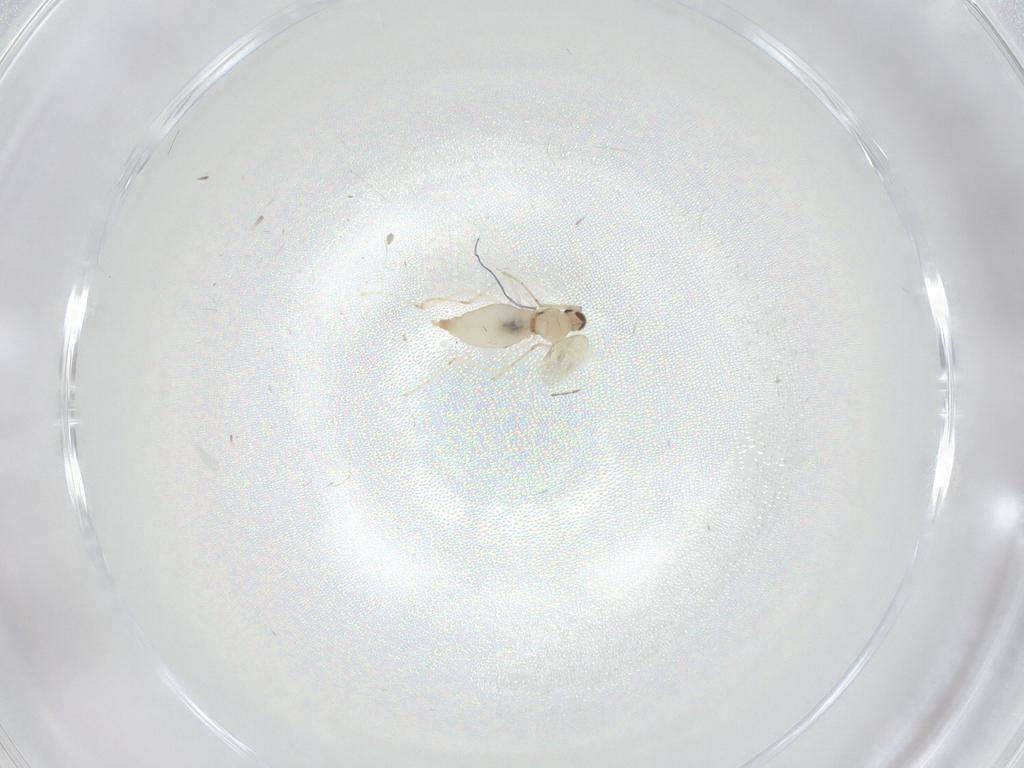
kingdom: Animalia
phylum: Arthropoda
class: Insecta
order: Diptera
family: Cecidomyiidae
